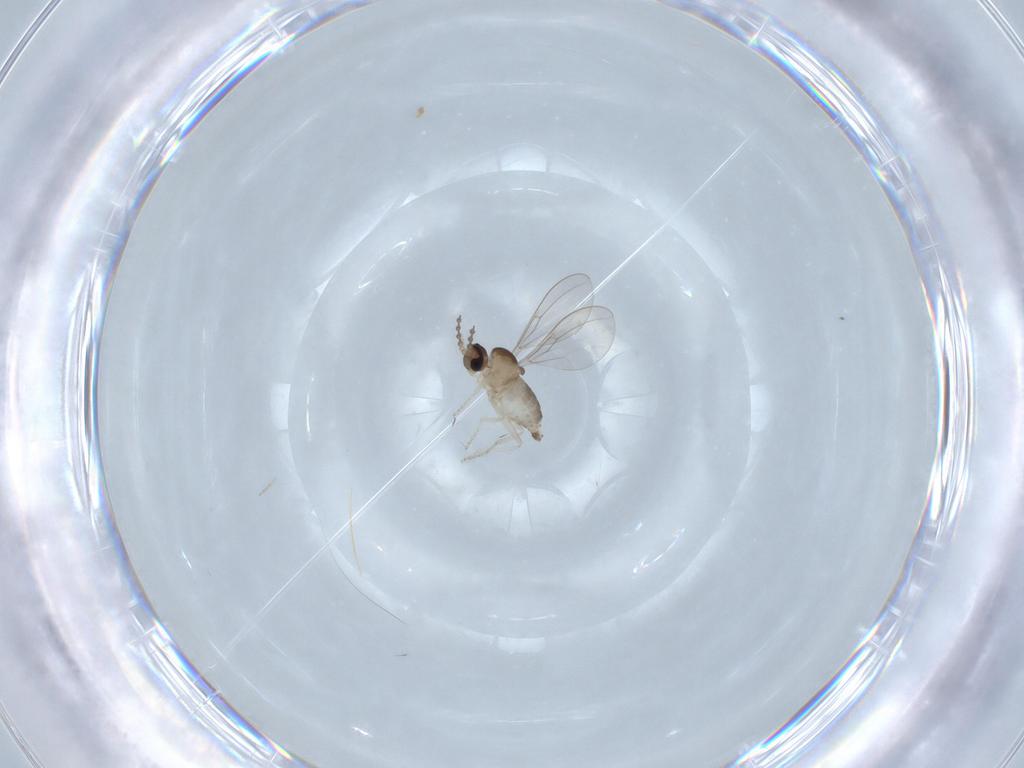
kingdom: Animalia
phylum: Arthropoda
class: Insecta
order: Diptera
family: Cecidomyiidae
